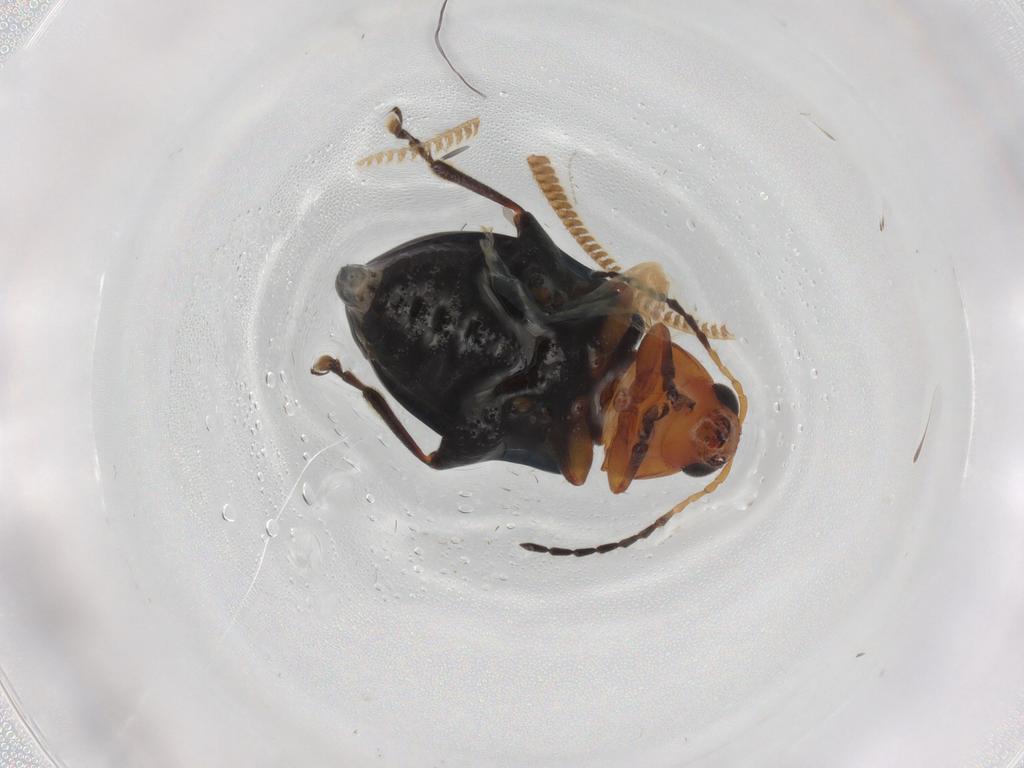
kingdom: Animalia
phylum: Arthropoda
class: Insecta
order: Coleoptera
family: Chrysomelidae
